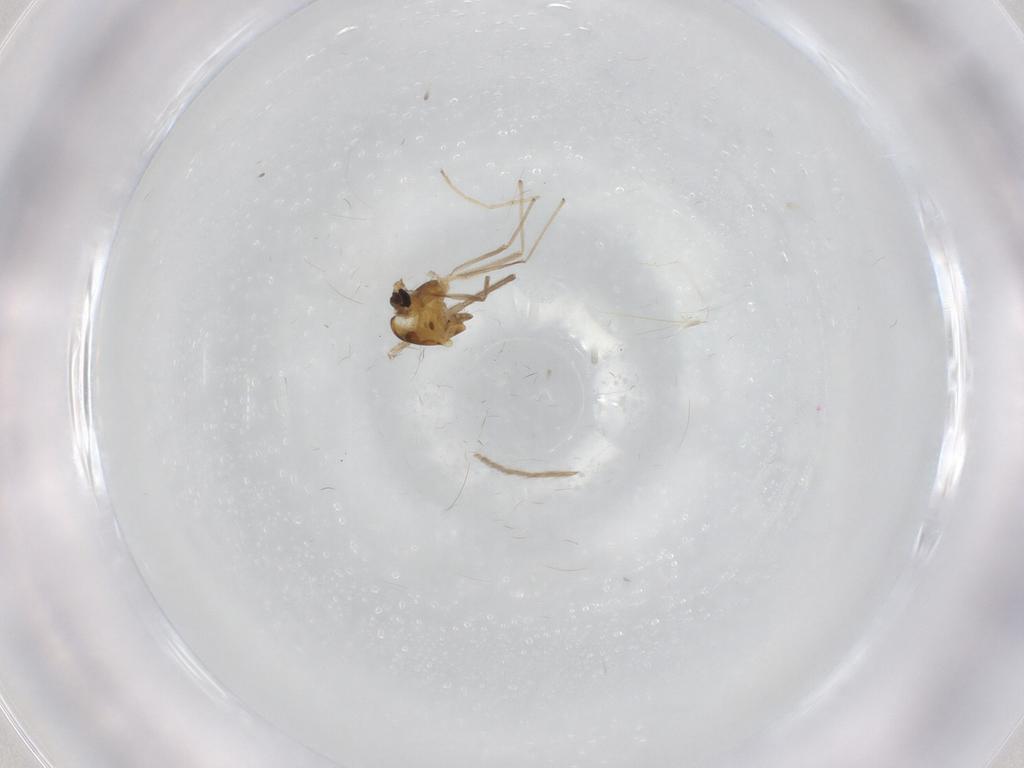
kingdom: Animalia
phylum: Arthropoda
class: Insecta
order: Diptera
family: Chironomidae
